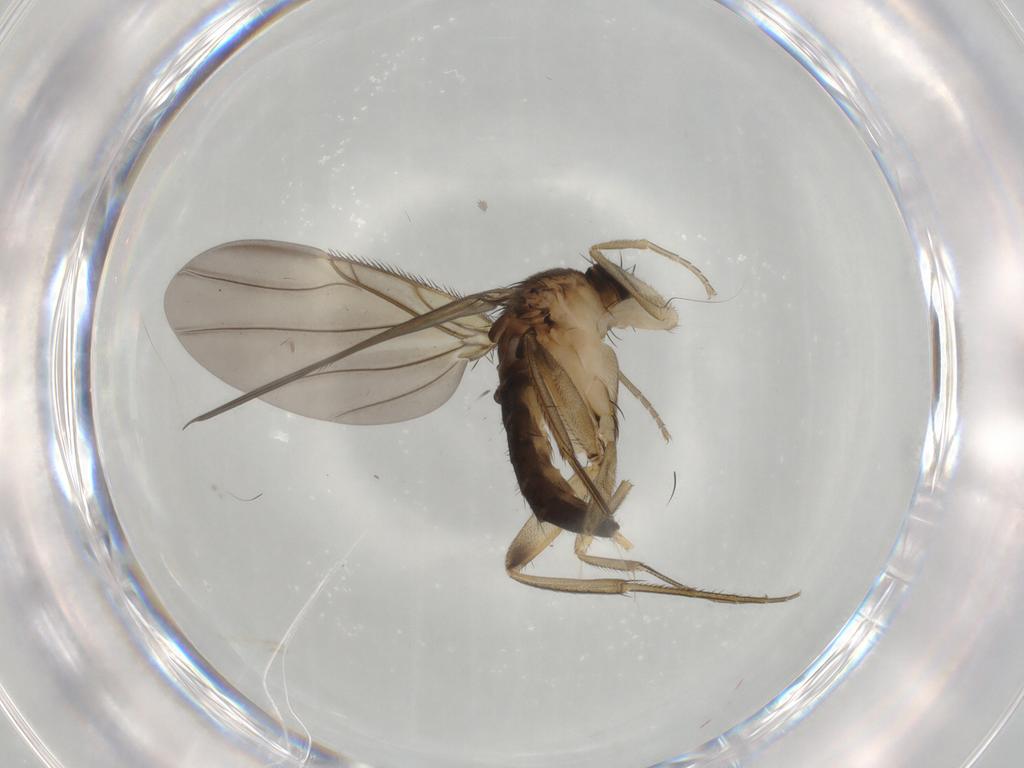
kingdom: Animalia
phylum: Arthropoda
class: Insecta
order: Diptera
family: Phoridae
